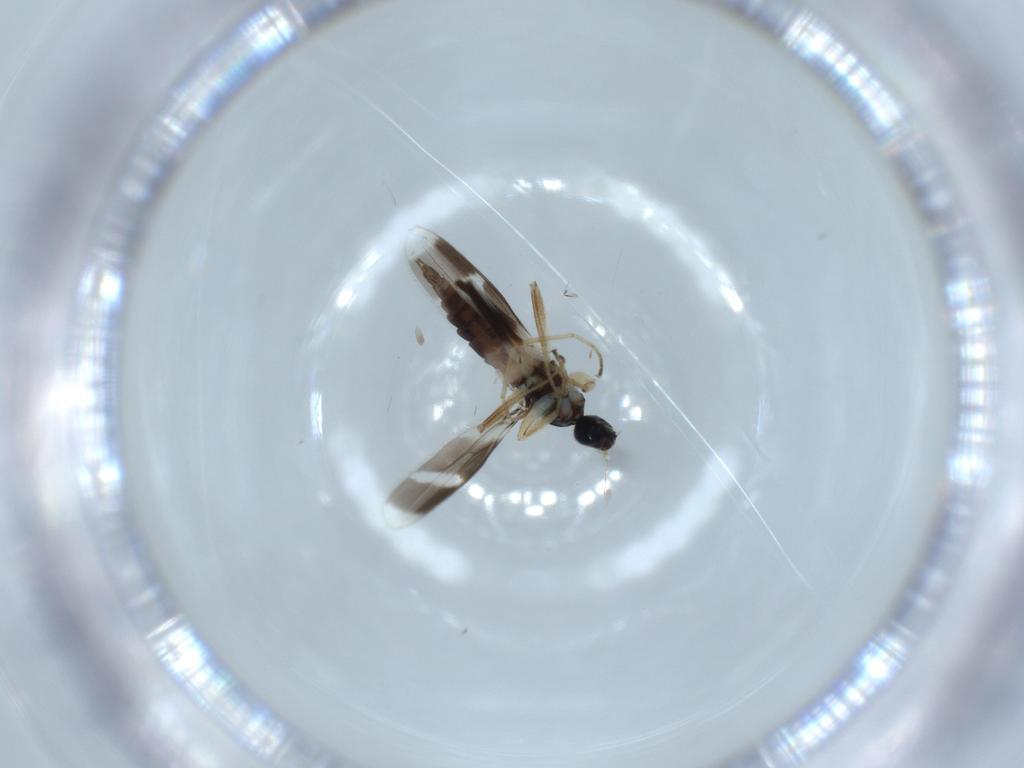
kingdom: Animalia
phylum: Arthropoda
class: Insecta
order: Diptera
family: Hybotidae
